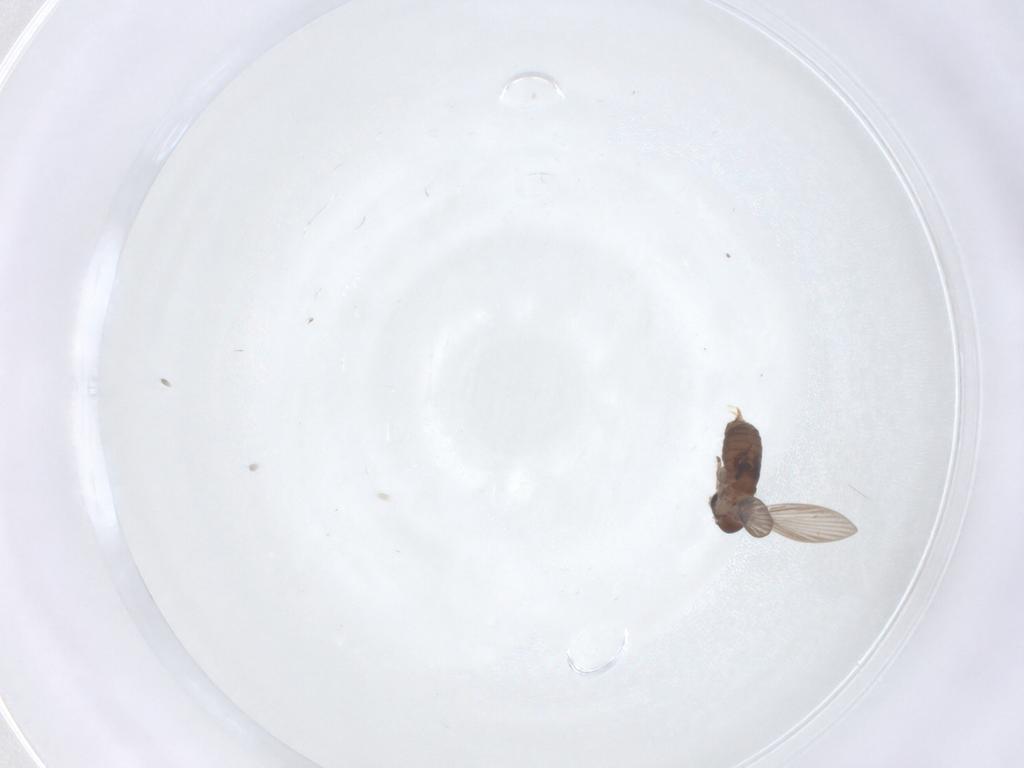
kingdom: Animalia
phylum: Arthropoda
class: Insecta
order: Diptera
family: Psychodidae
